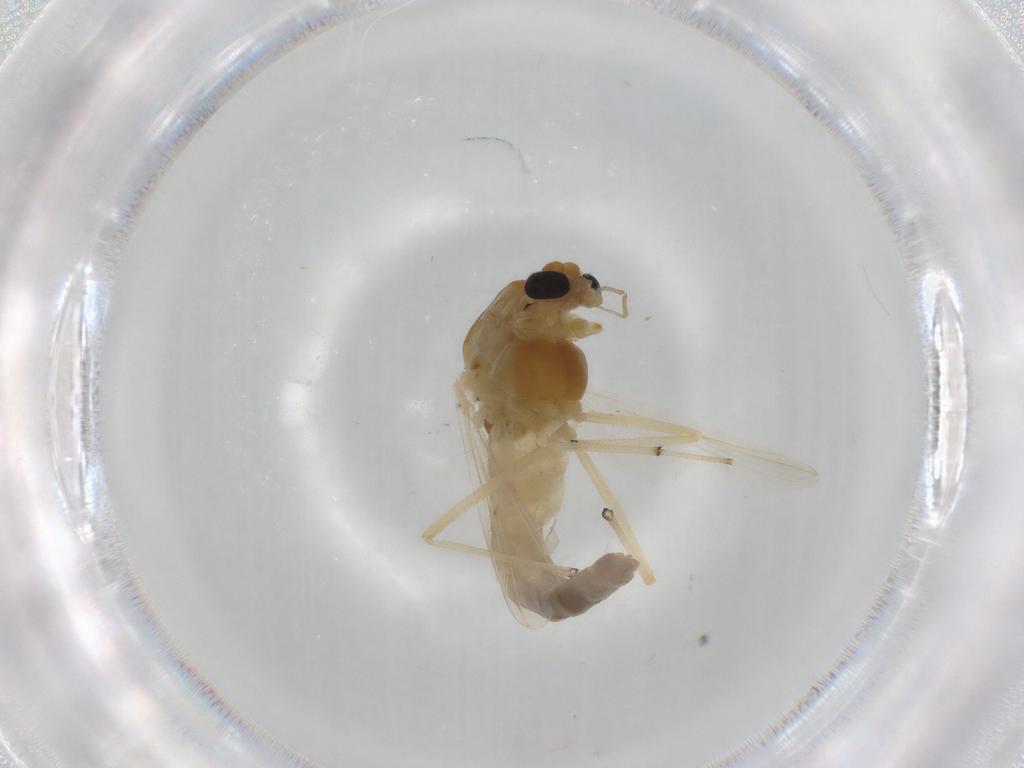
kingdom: Animalia
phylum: Arthropoda
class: Insecta
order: Diptera
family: Chironomidae
